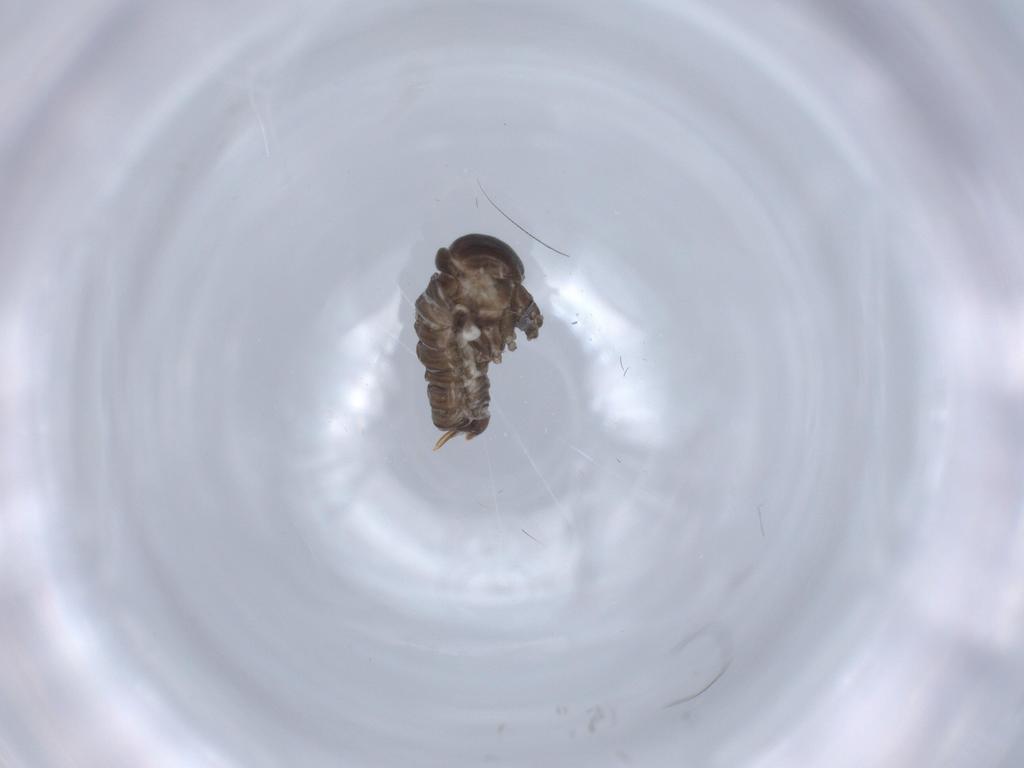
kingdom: Animalia
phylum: Arthropoda
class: Insecta
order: Diptera
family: Psychodidae
